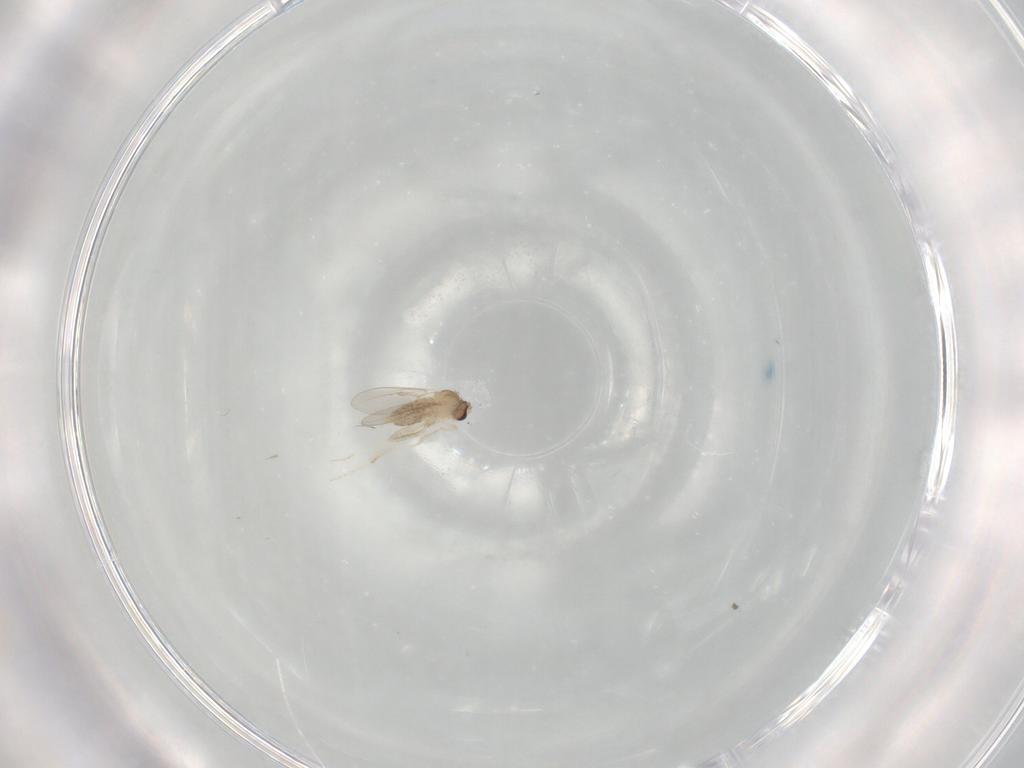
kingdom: Animalia
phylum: Arthropoda
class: Insecta
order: Diptera
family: Cecidomyiidae
